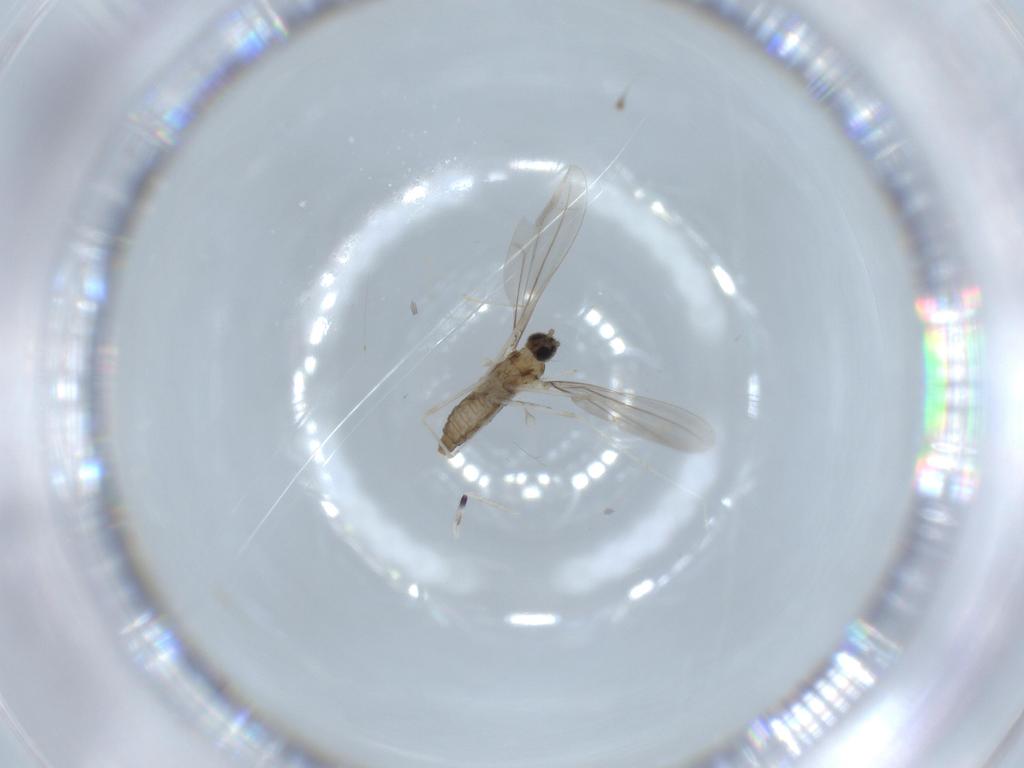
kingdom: Animalia
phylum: Arthropoda
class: Insecta
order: Diptera
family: Cecidomyiidae
